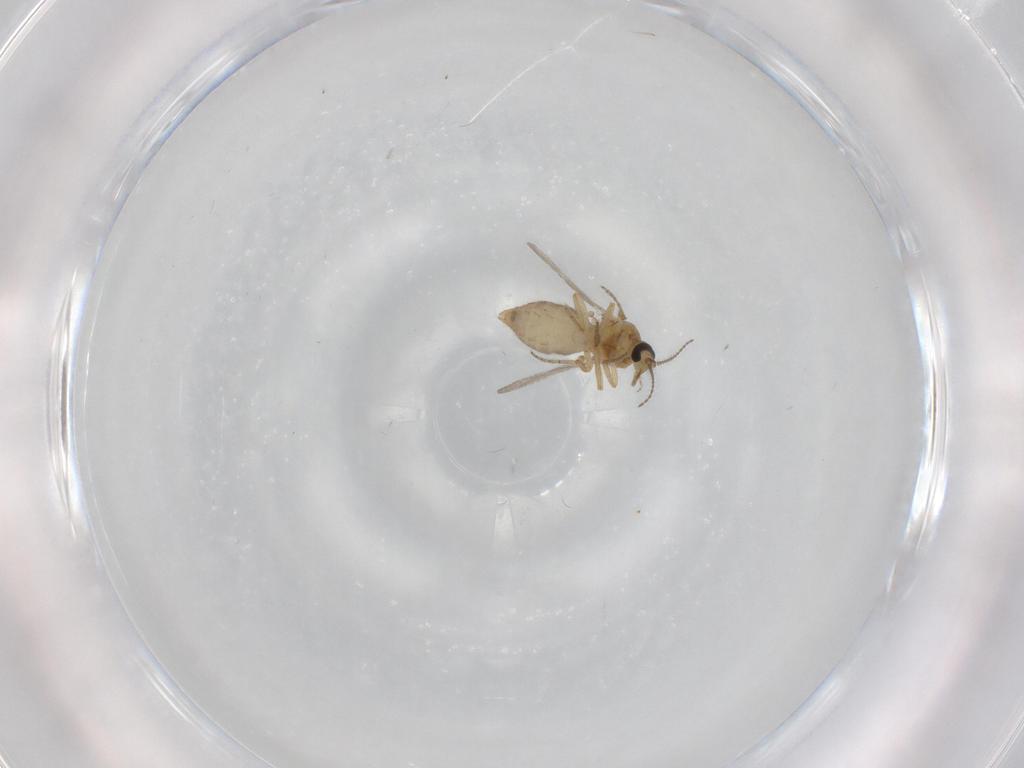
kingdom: Animalia
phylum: Arthropoda
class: Insecta
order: Diptera
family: Ceratopogonidae
